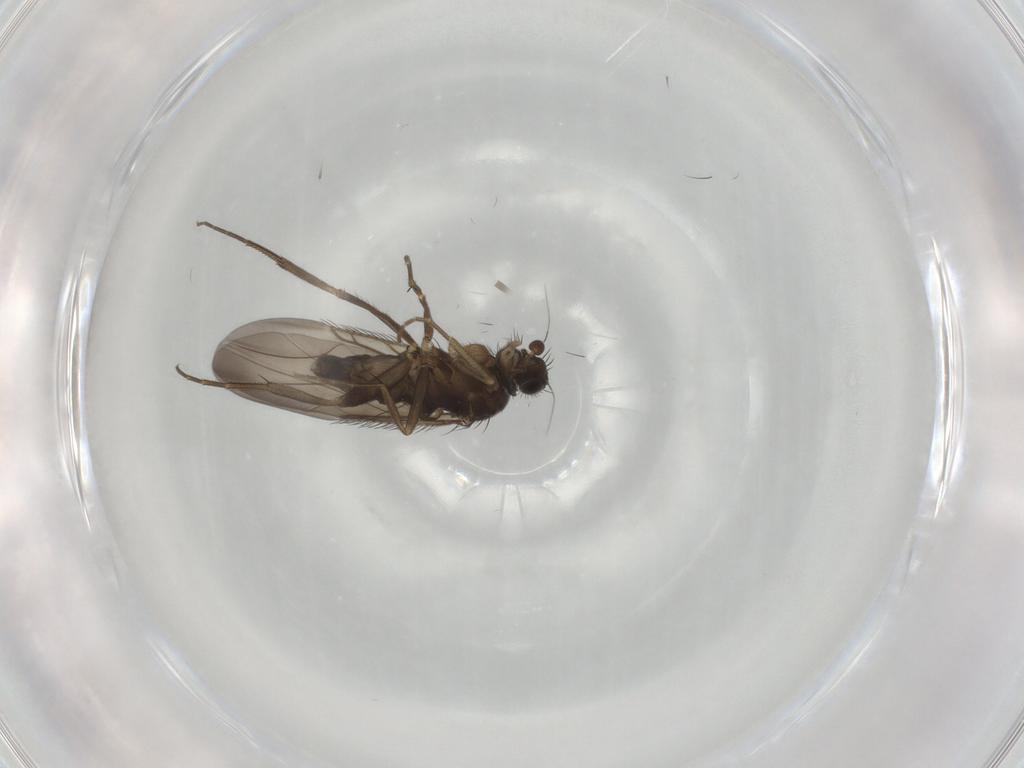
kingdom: Animalia
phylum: Arthropoda
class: Insecta
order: Diptera
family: Phoridae
